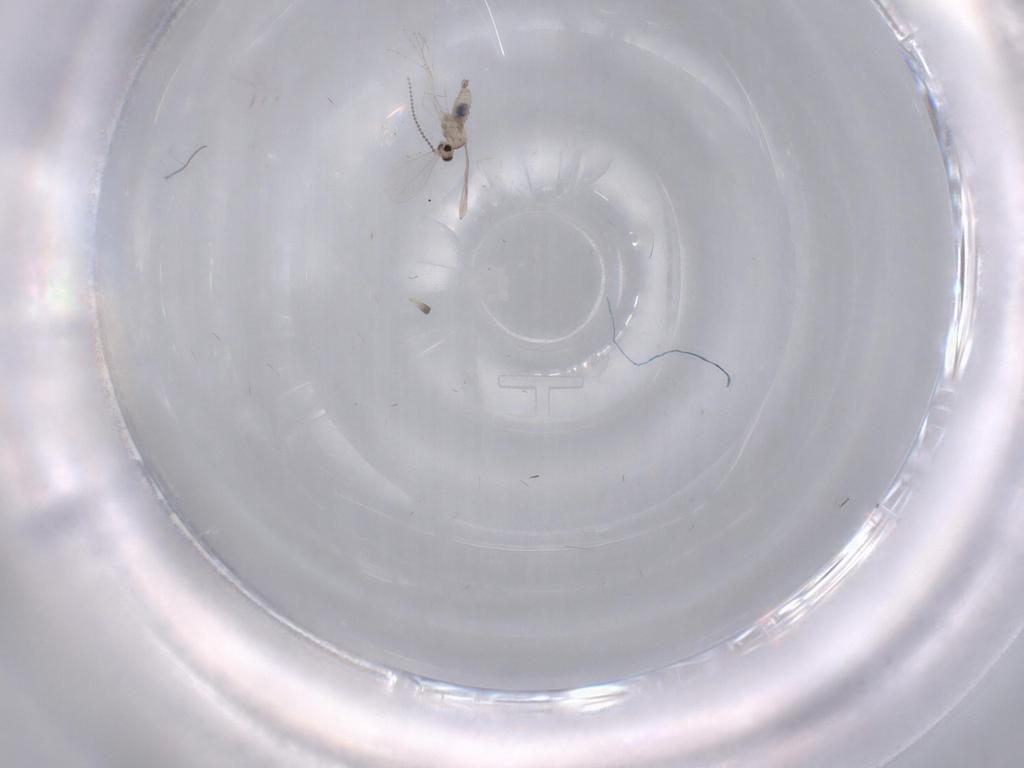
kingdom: Animalia
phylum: Arthropoda
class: Insecta
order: Diptera
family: Cecidomyiidae
